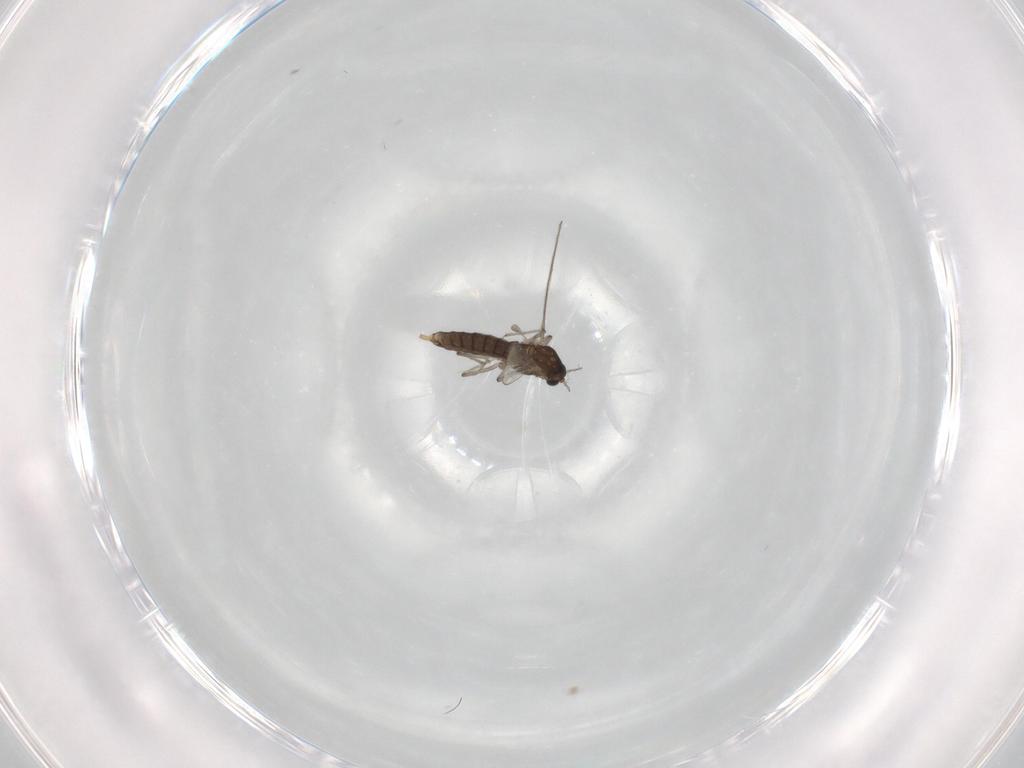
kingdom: Animalia
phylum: Arthropoda
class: Insecta
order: Diptera
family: Chironomidae
